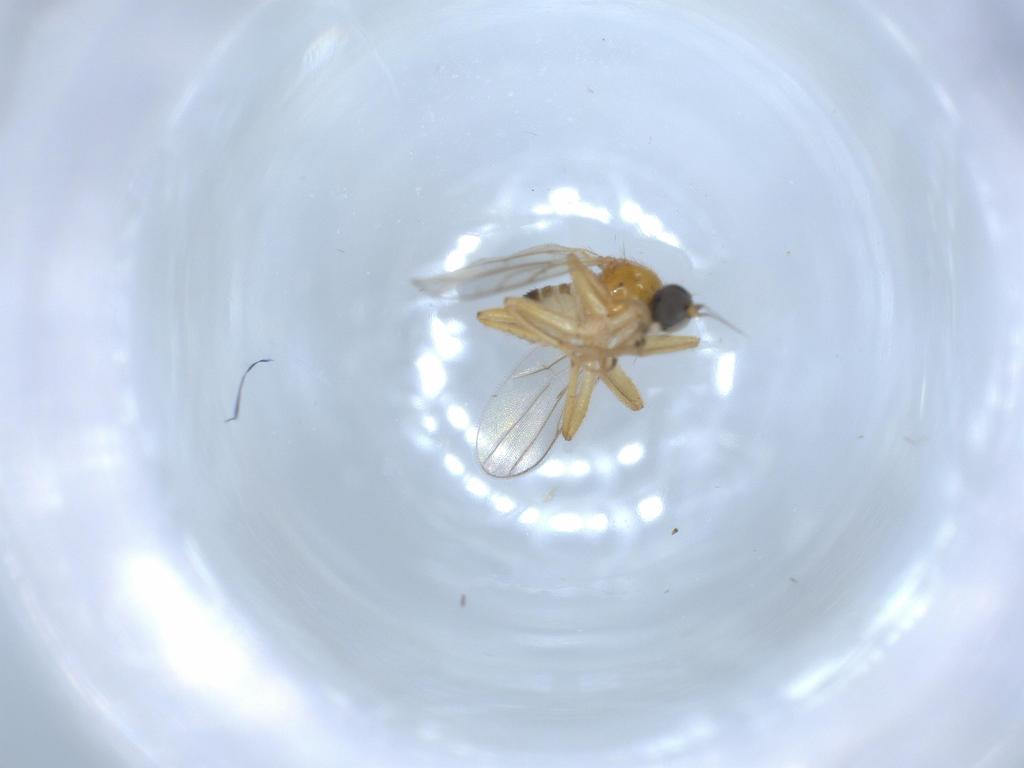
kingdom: Animalia
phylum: Arthropoda
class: Insecta
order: Diptera
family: Ceratopogonidae
